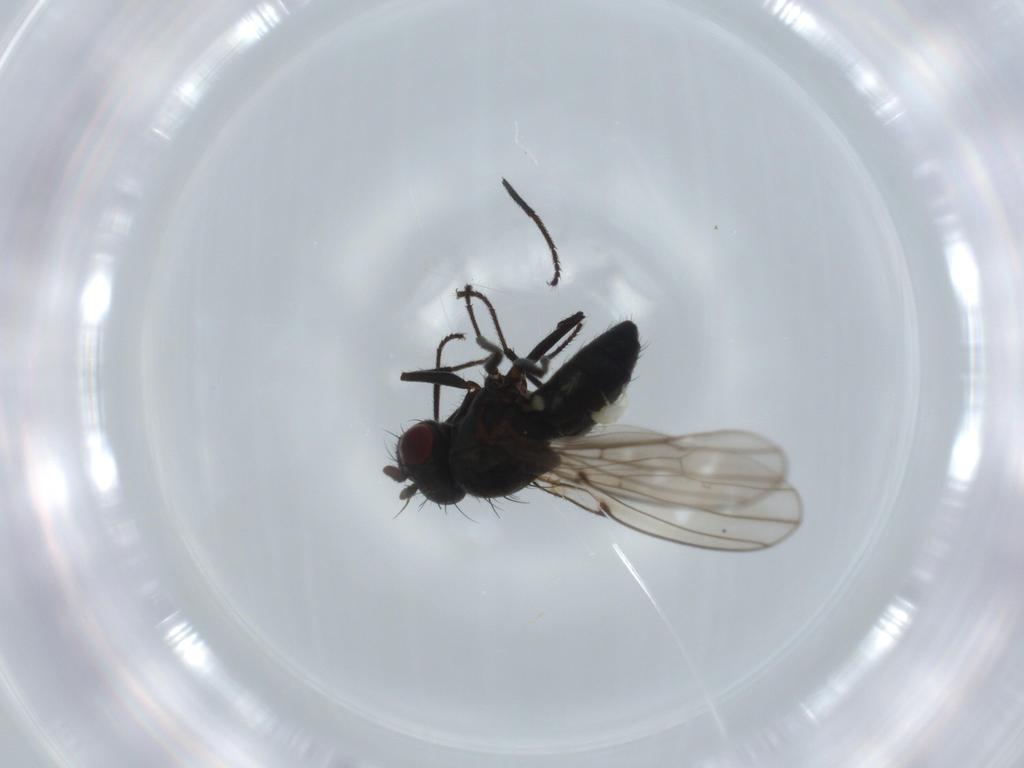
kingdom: Animalia
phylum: Arthropoda
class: Insecta
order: Diptera
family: Ephydridae
